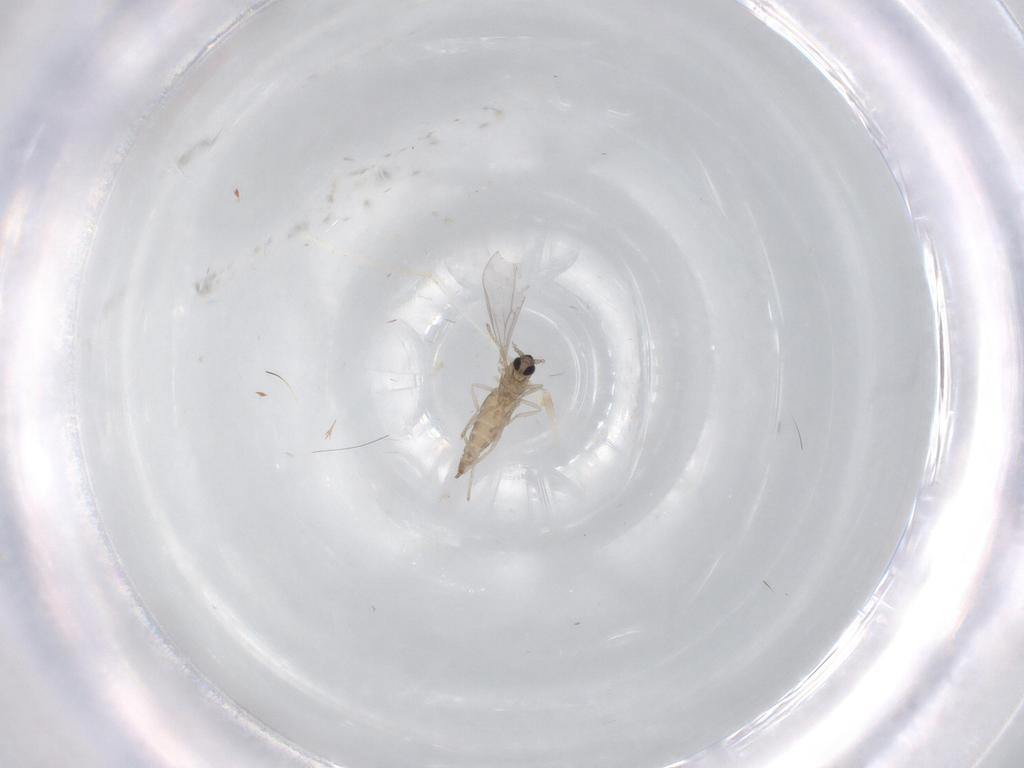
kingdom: Animalia
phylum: Arthropoda
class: Insecta
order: Diptera
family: Cecidomyiidae
